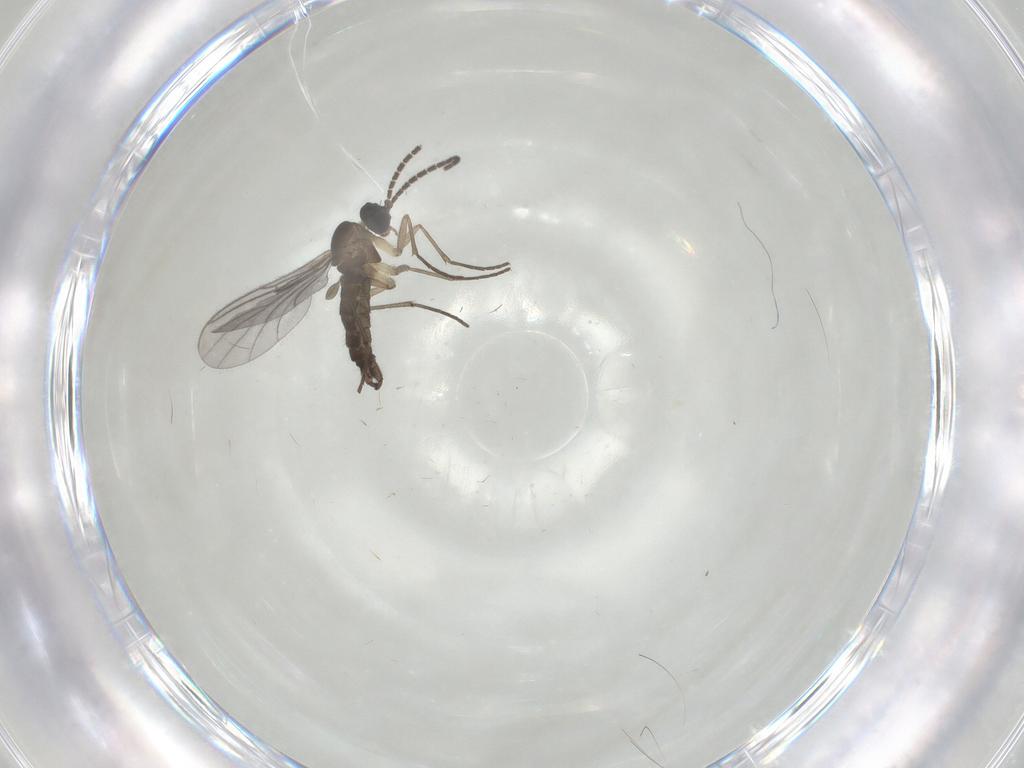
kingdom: Animalia
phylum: Arthropoda
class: Insecta
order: Diptera
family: Sciaridae
